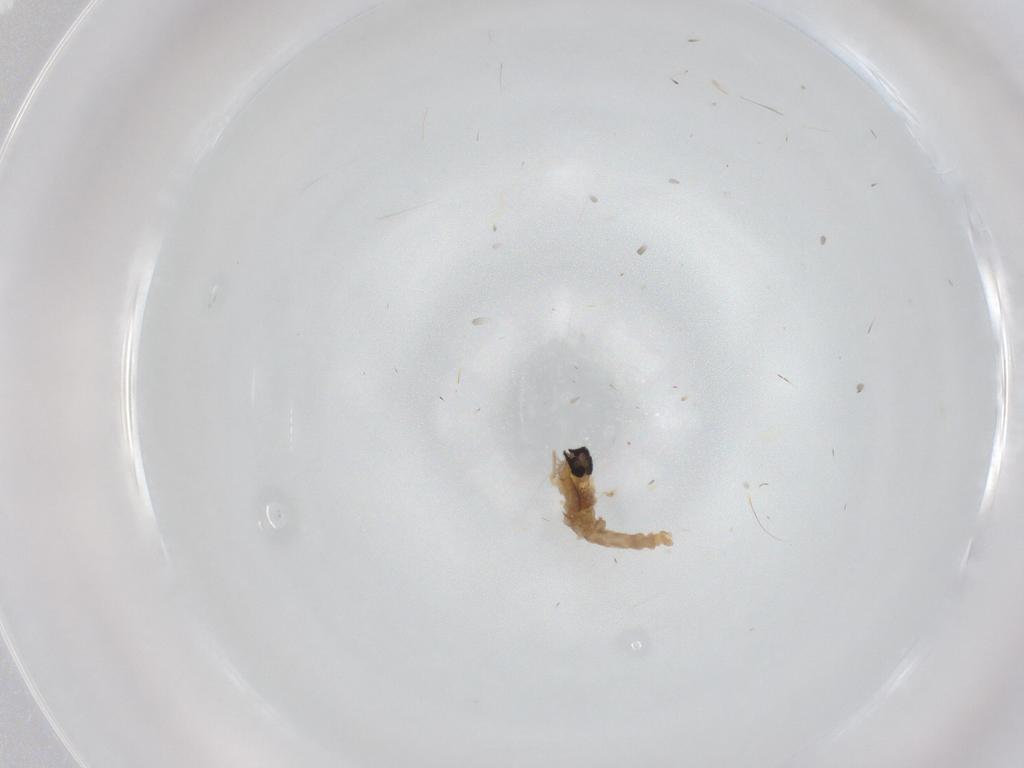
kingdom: Animalia
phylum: Arthropoda
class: Insecta
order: Diptera
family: Cecidomyiidae
